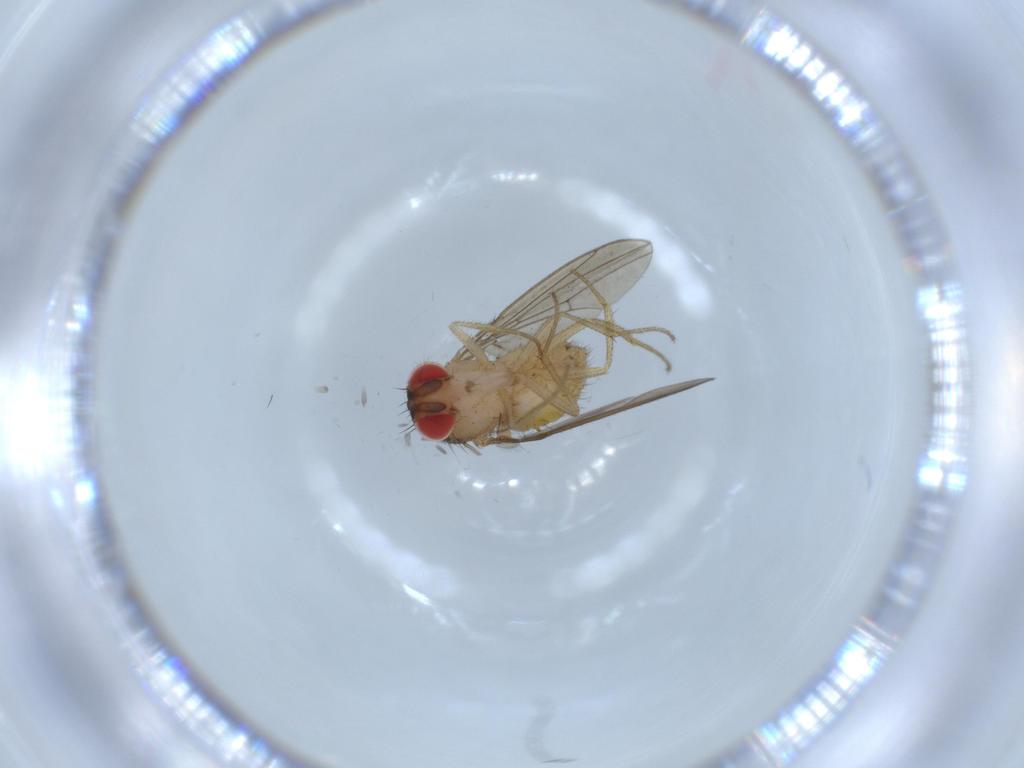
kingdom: Animalia
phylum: Arthropoda
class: Insecta
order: Diptera
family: Drosophilidae
